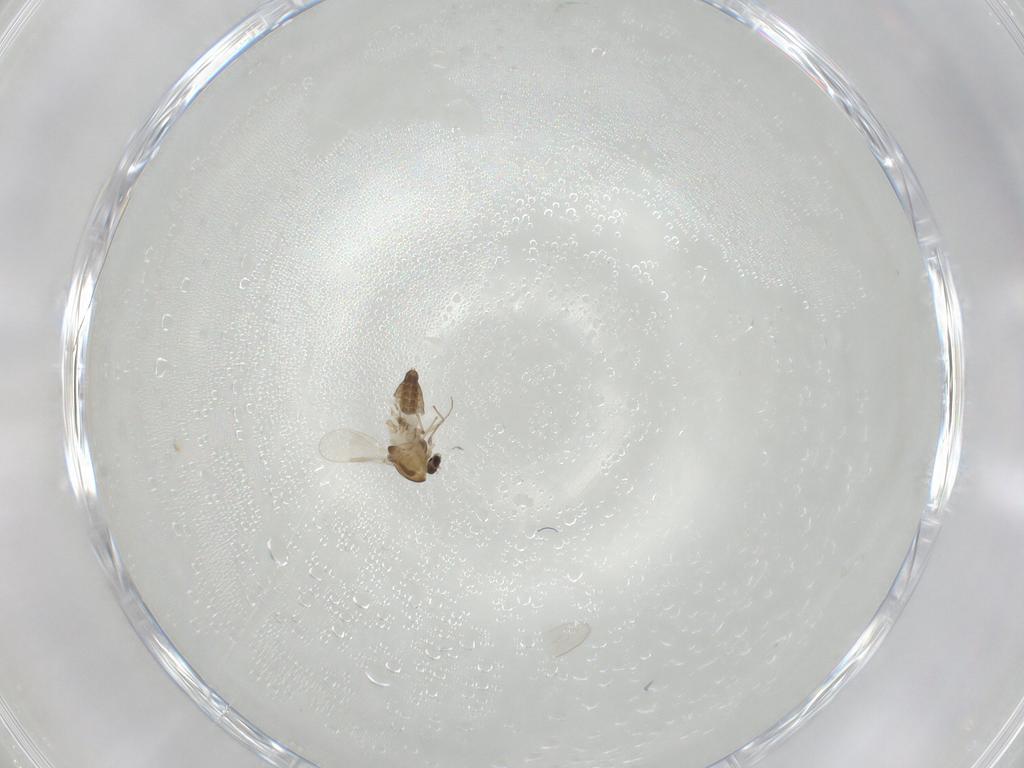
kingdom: Animalia
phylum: Arthropoda
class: Insecta
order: Diptera
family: Chironomidae
